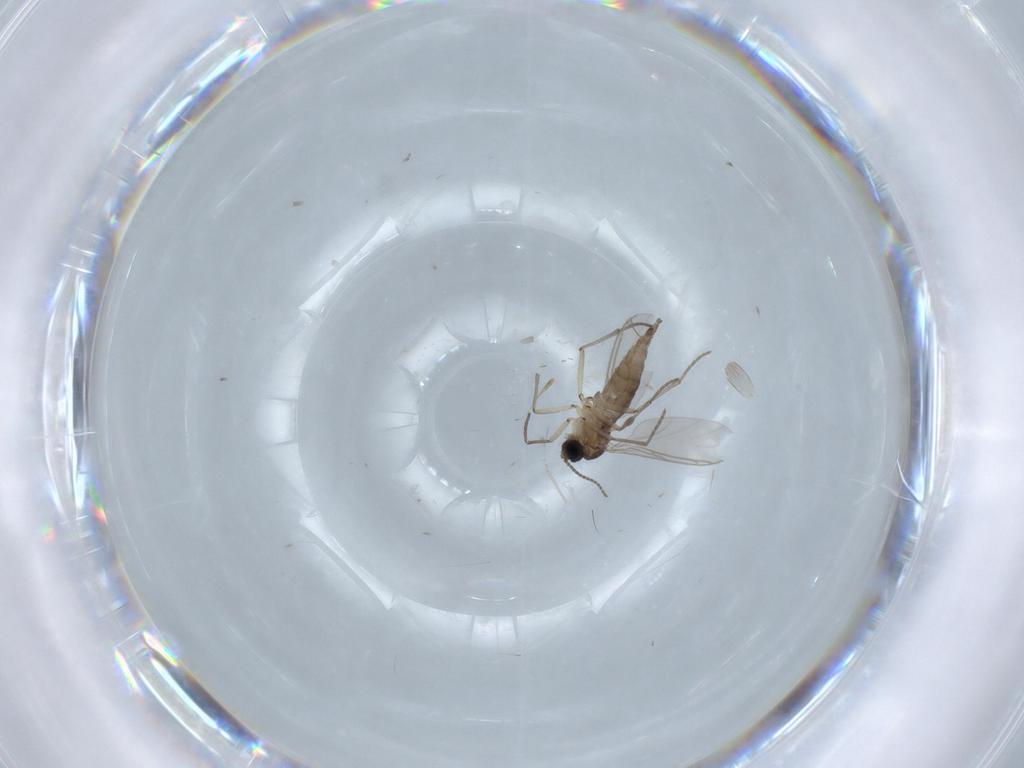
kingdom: Animalia
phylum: Arthropoda
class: Insecta
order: Diptera
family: Sciaridae
